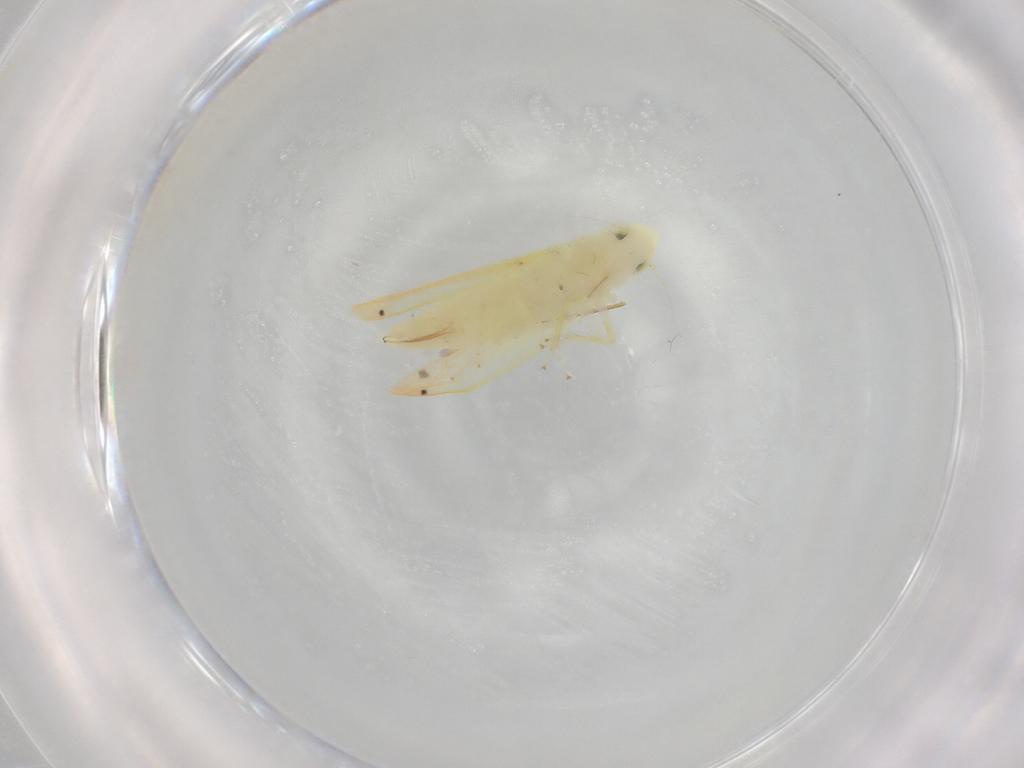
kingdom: Animalia
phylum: Arthropoda
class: Insecta
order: Hemiptera
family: Cicadellidae
